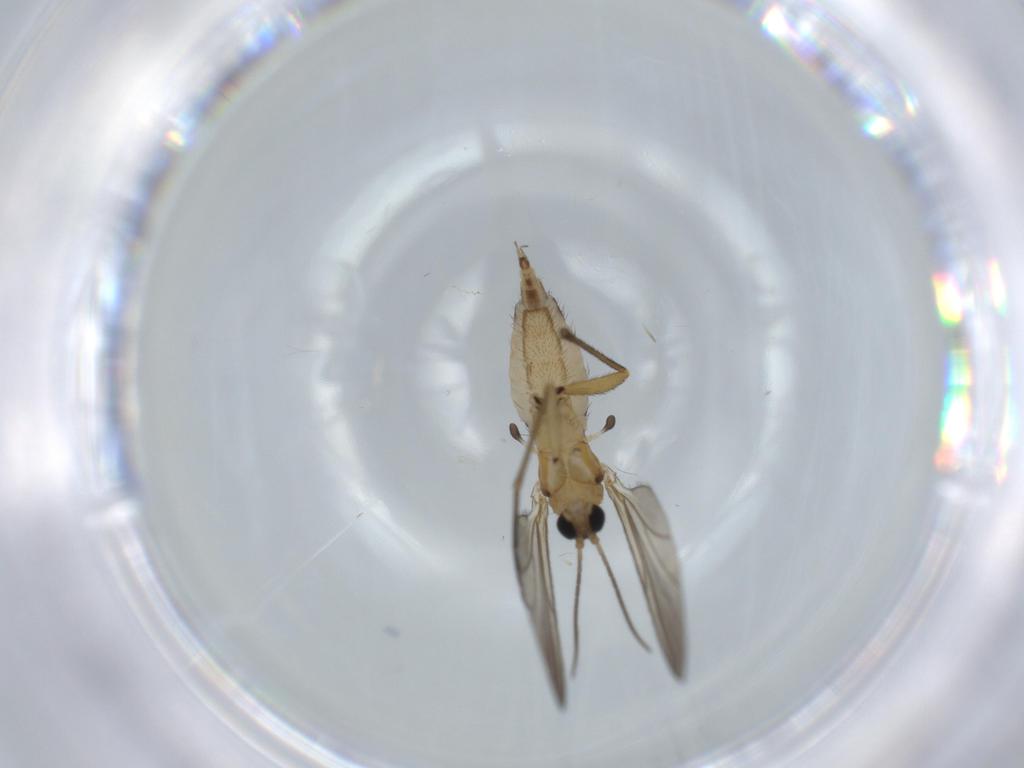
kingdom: Animalia
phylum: Arthropoda
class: Insecta
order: Diptera
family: Sciaridae
